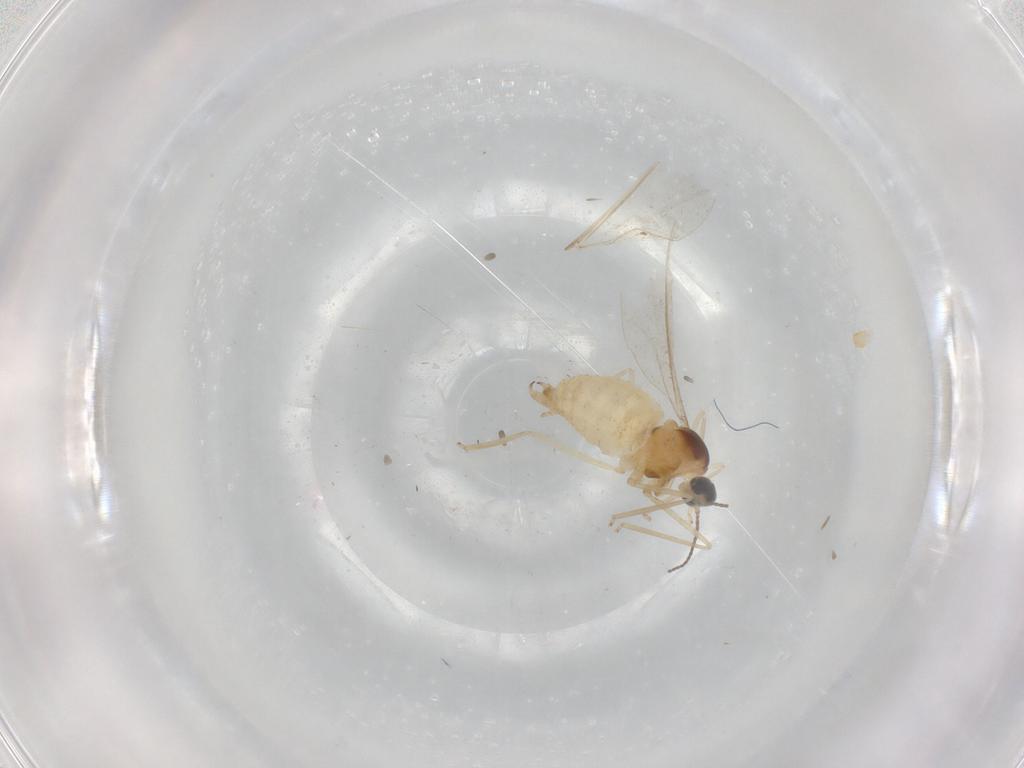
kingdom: Animalia
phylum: Arthropoda
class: Insecta
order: Diptera
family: Cecidomyiidae
